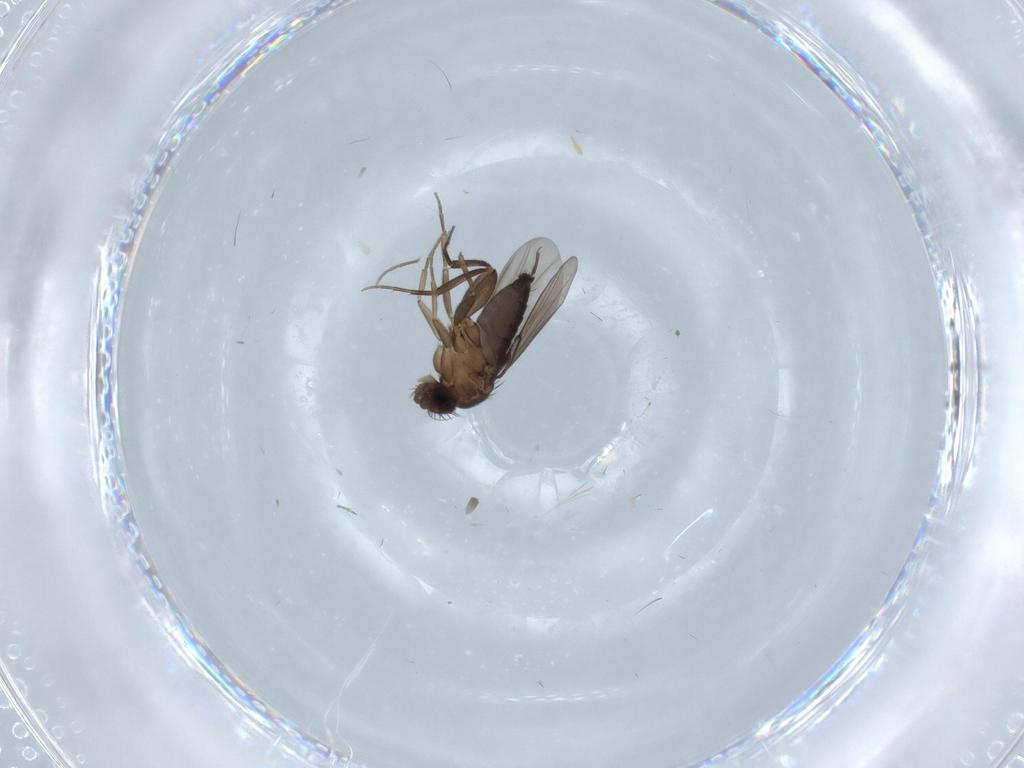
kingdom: Animalia
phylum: Arthropoda
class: Insecta
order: Diptera
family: Phoridae
